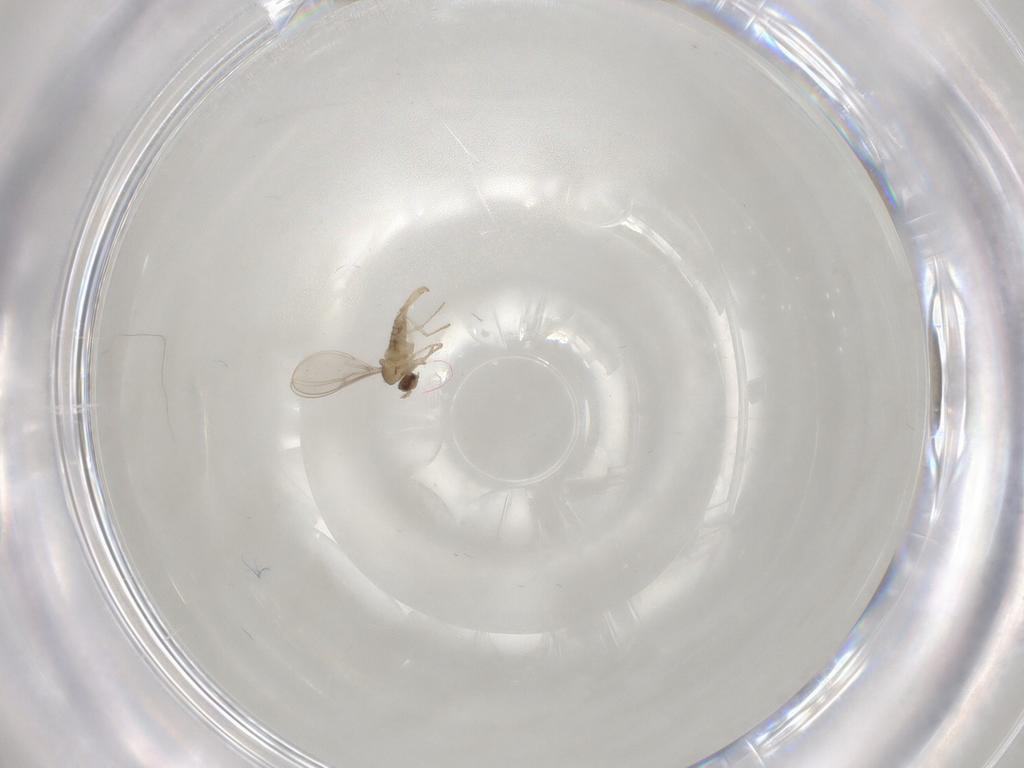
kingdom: Animalia
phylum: Arthropoda
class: Insecta
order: Diptera
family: Cecidomyiidae
